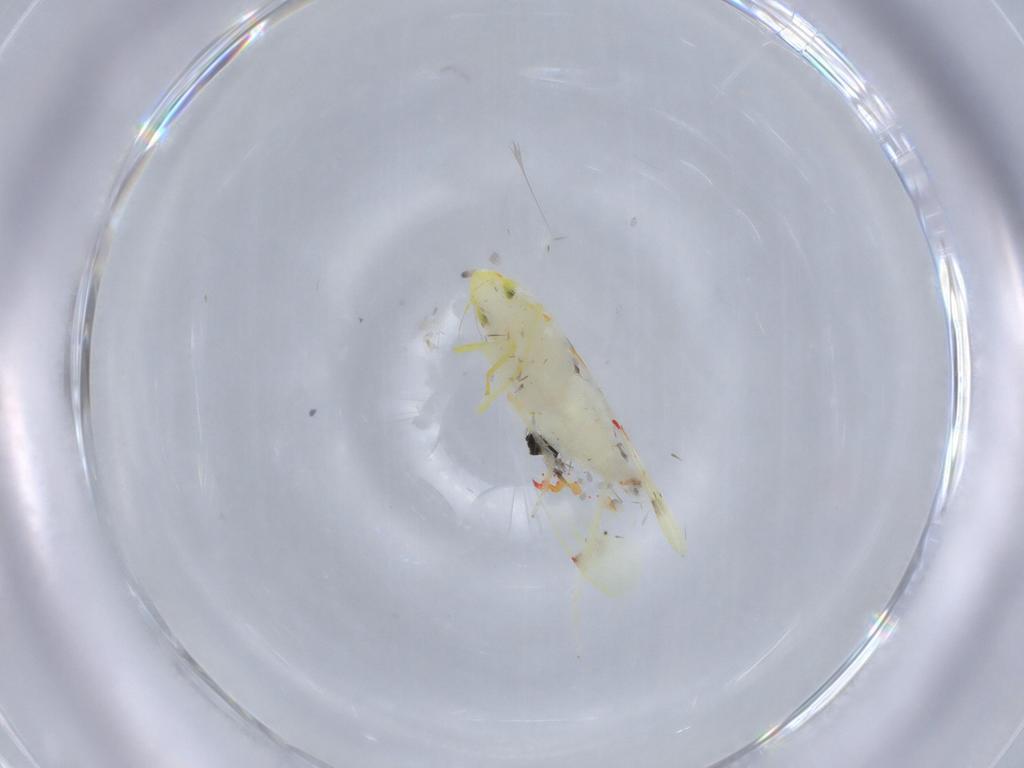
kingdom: Animalia
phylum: Arthropoda
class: Insecta
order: Hemiptera
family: Cicadellidae
